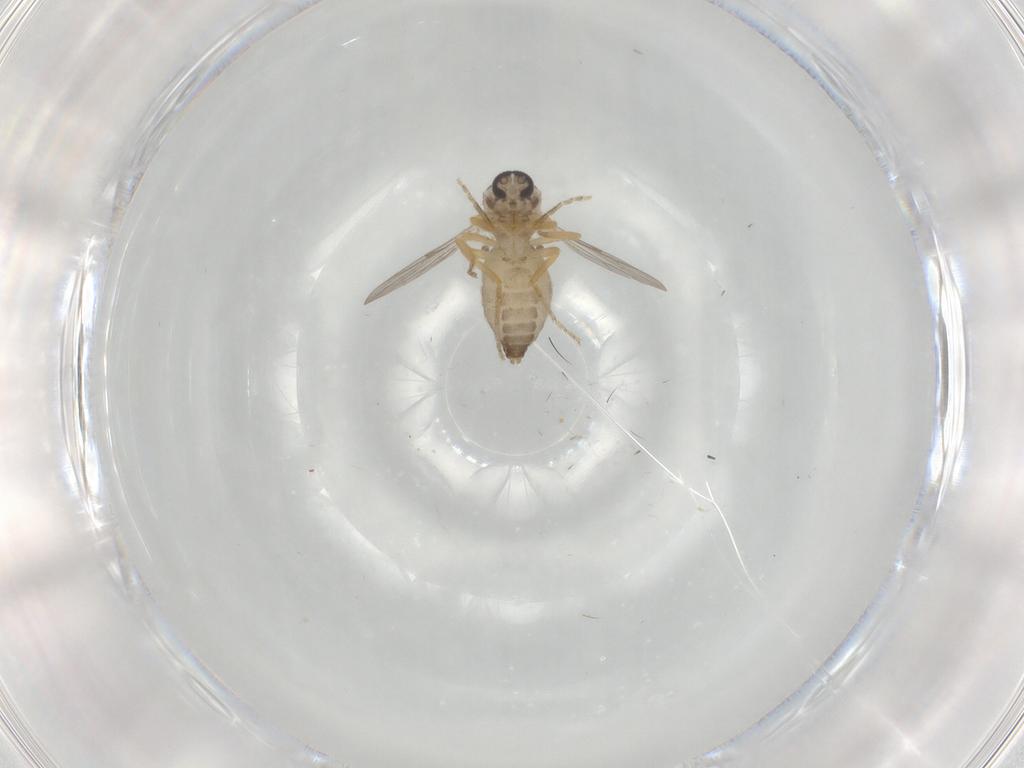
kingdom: Animalia
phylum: Arthropoda
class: Insecta
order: Diptera
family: Ceratopogonidae
